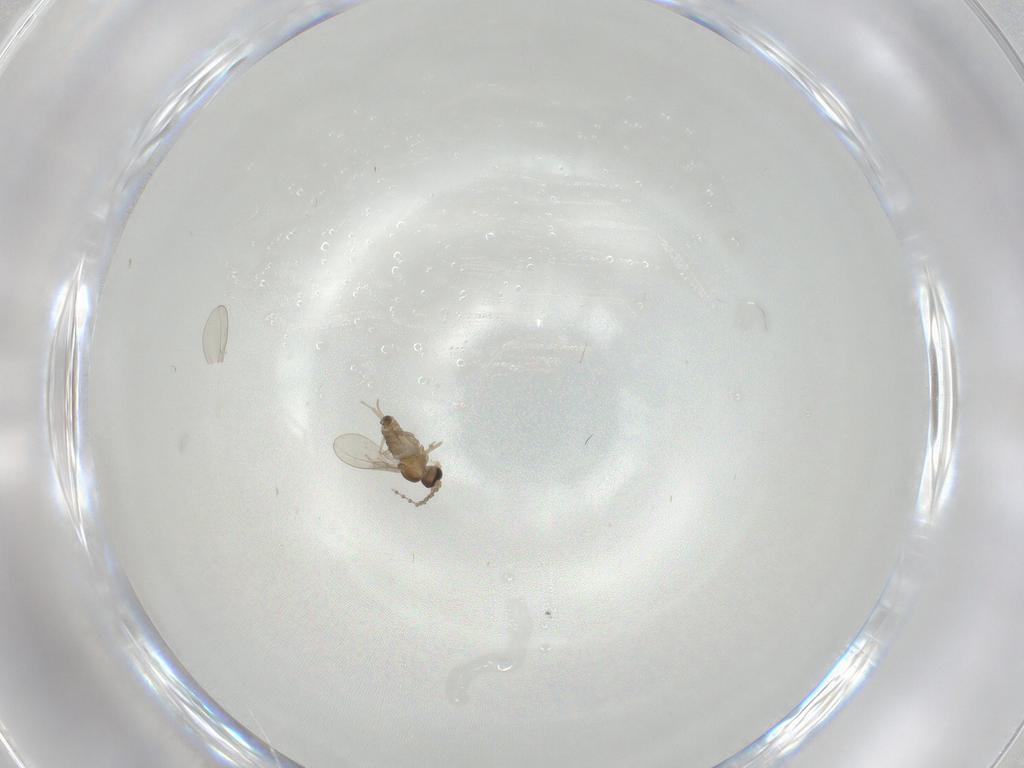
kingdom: Animalia
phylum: Arthropoda
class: Insecta
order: Diptera
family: Cecidomyiidae
